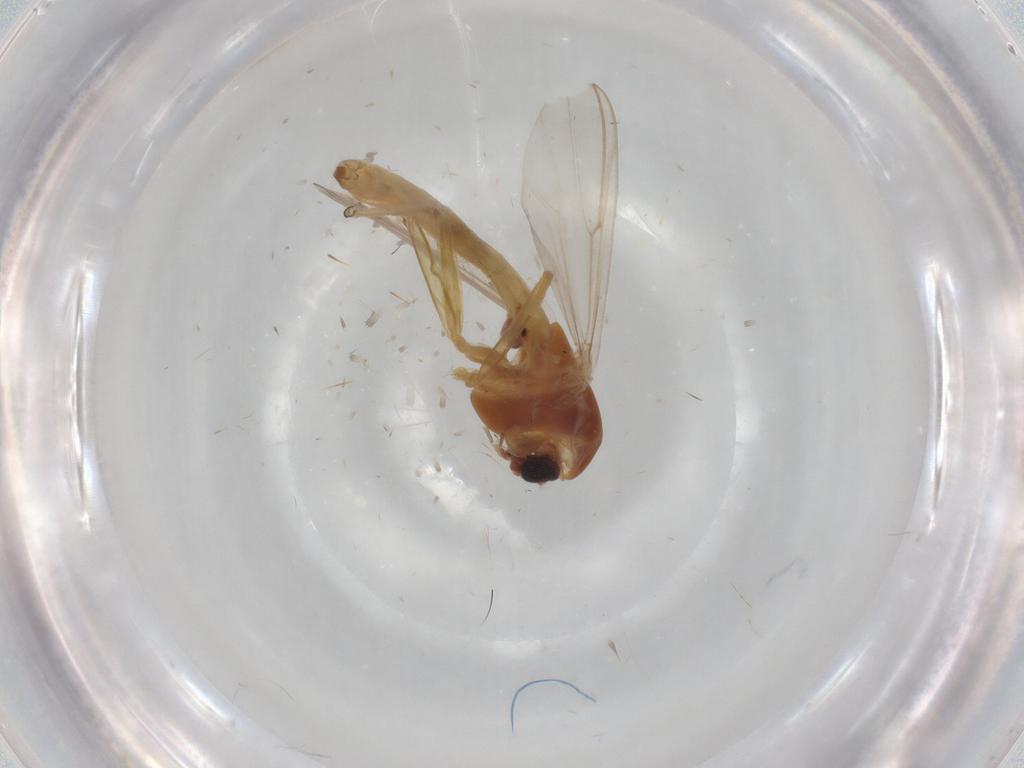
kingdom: Animalia
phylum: Arthropoda
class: Insecta
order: Diptera
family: Chironomidae
